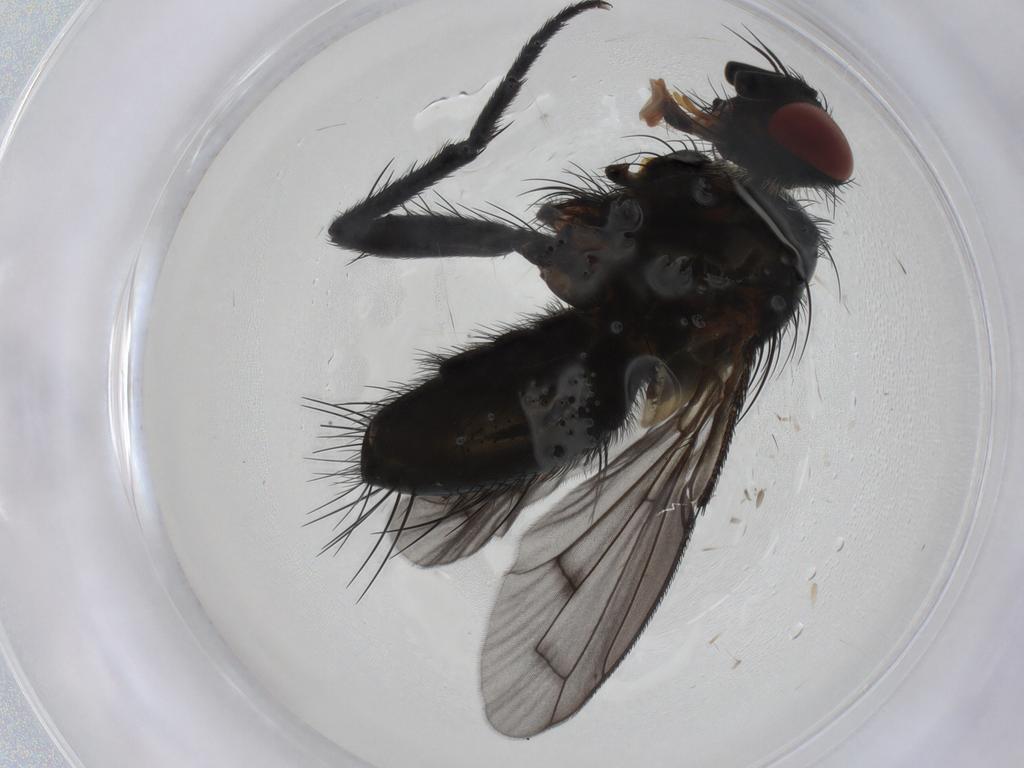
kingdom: Animalia
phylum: Arthropoda
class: Insecta
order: Diptera
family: Tachinidae
